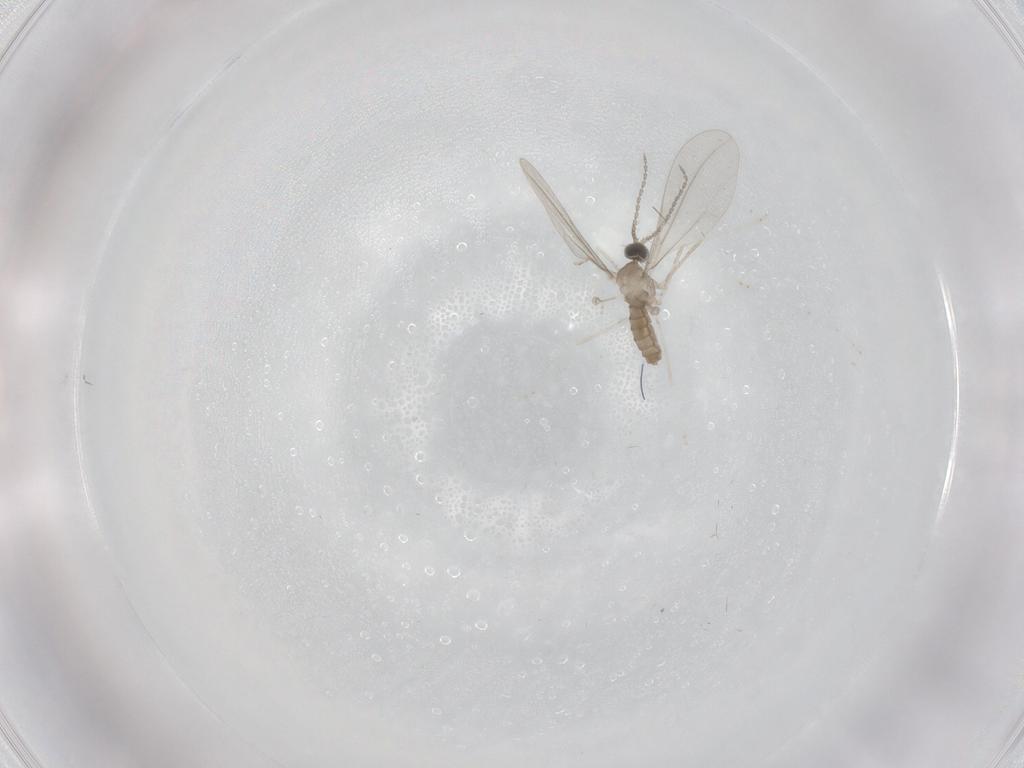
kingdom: Animalia
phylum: Arthropoda
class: Insecta
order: Diptera
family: Cecidomyiidae
